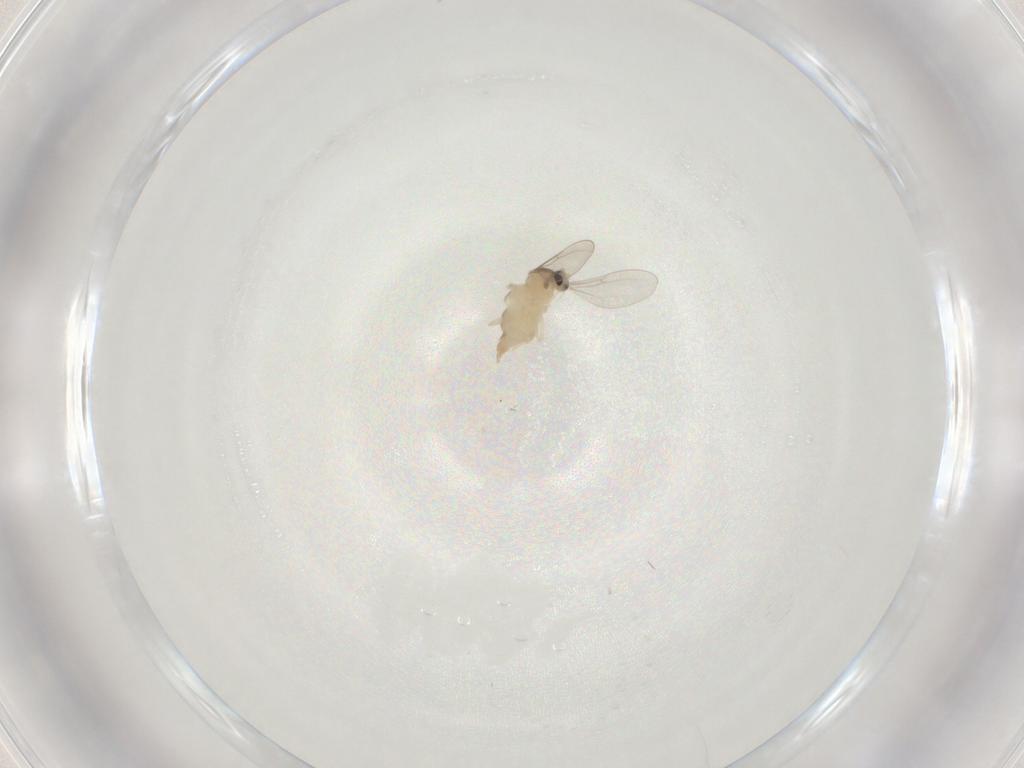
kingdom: Animalia
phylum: Arthropoda
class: Insecta
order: Diptera
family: Cecidomyiidae
